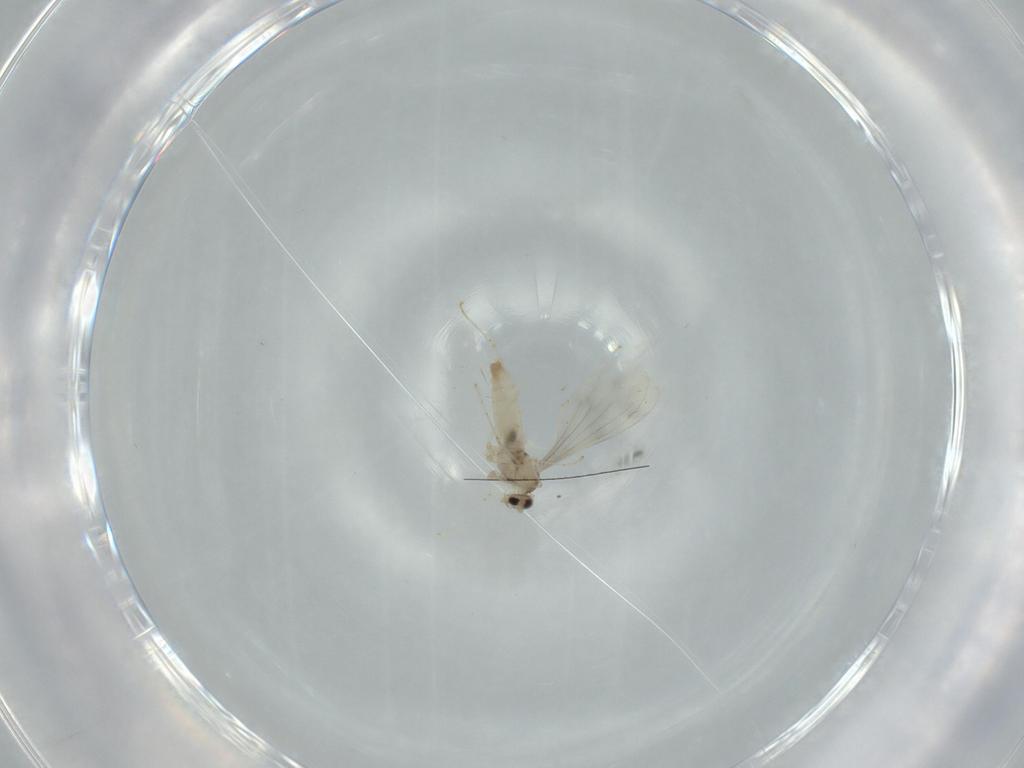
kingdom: Animalia
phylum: Arthropoda
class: Insecta
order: Diptera
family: Cecidomyiidae
